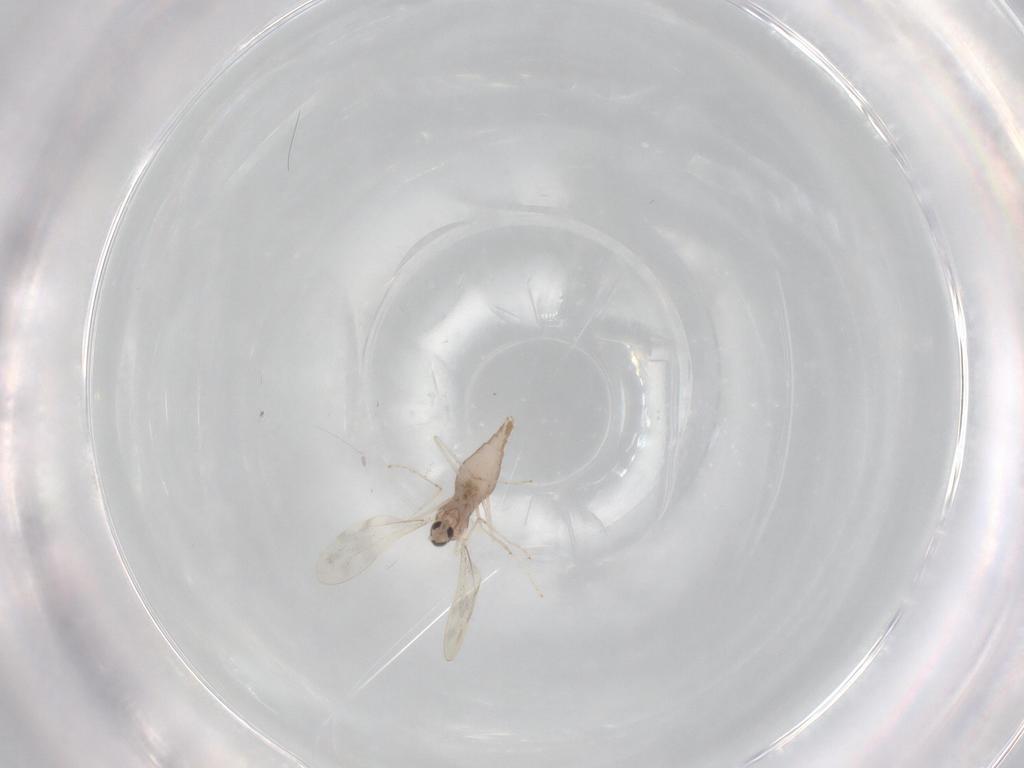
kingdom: Animalia
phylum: Arthropoda
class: Insecta
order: Diptera
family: Cecidomyiidae
